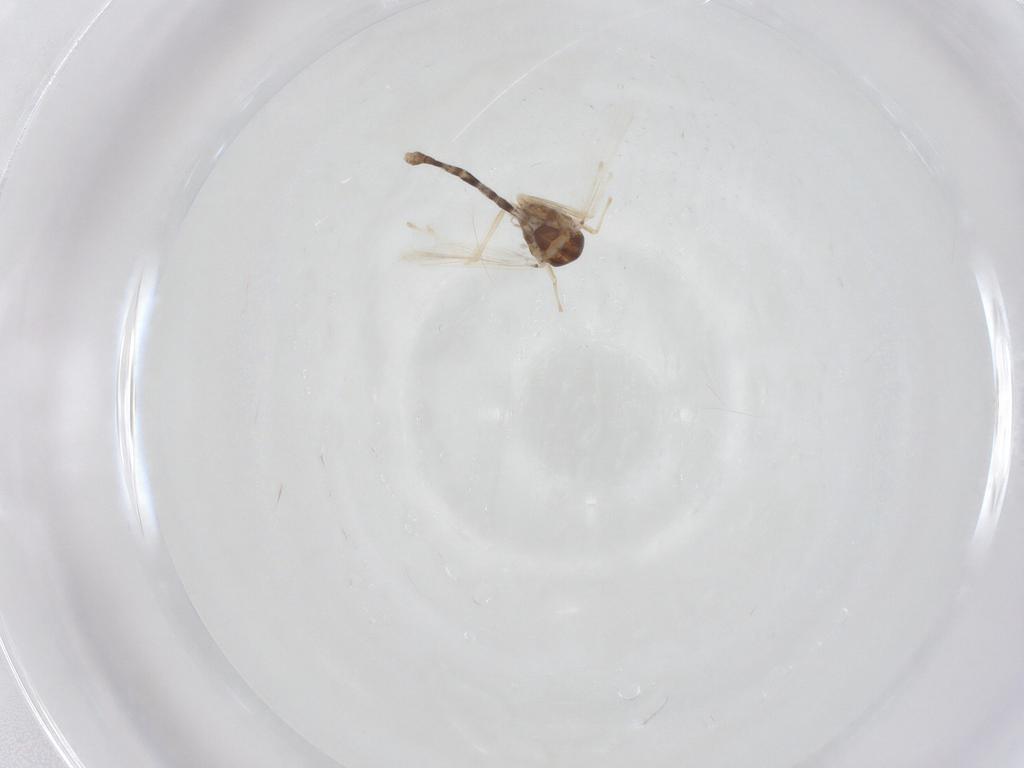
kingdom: Animalia
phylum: Arthropoda
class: Insecta
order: Diptera
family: Chironomidae
